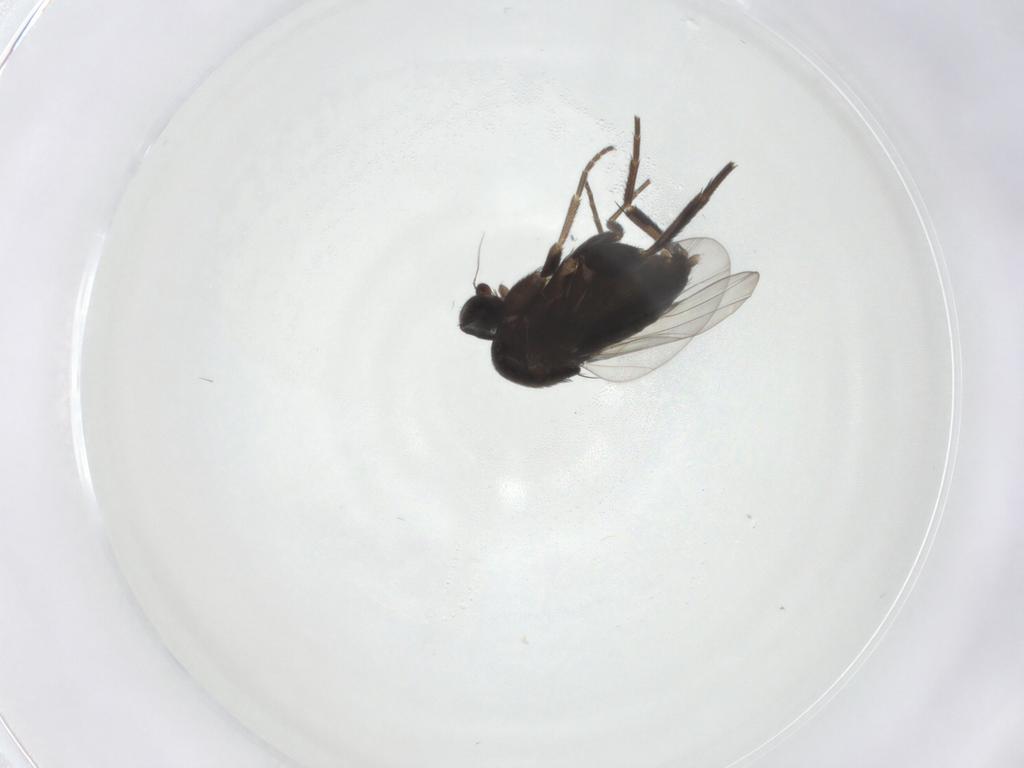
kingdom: Animalia
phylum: Arthropoda
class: Insecta
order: Diptera
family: Phoridae
